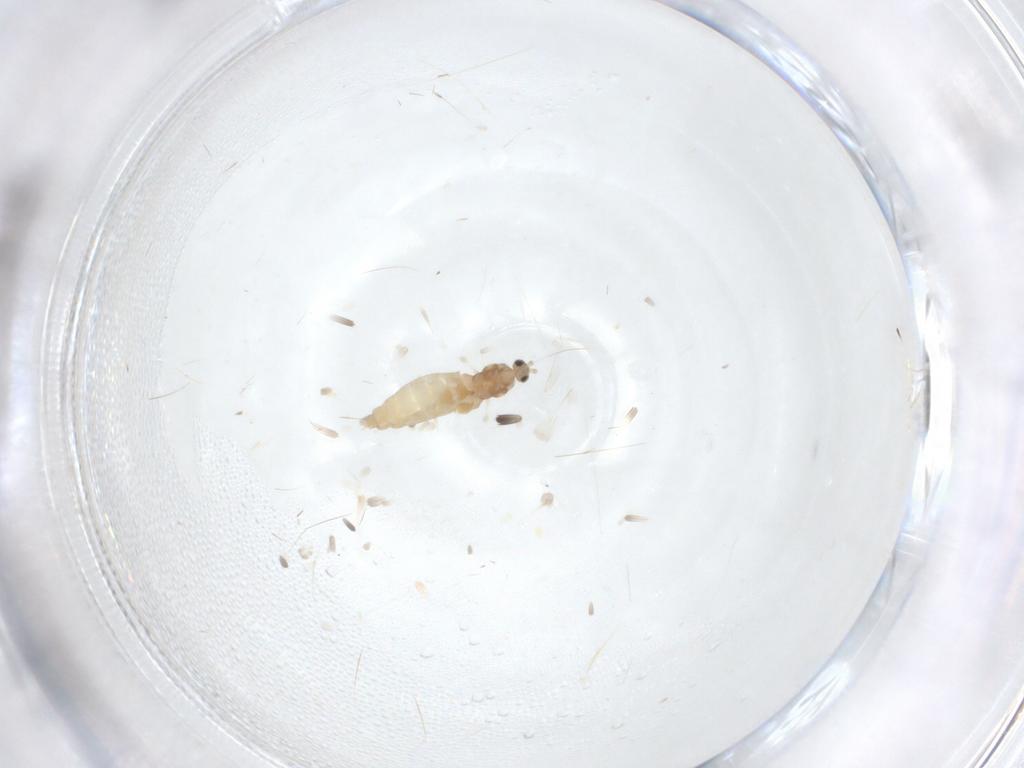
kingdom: Animalia
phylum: Arthropoda
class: Insecta
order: Diptera
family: Cecidomyiidae
